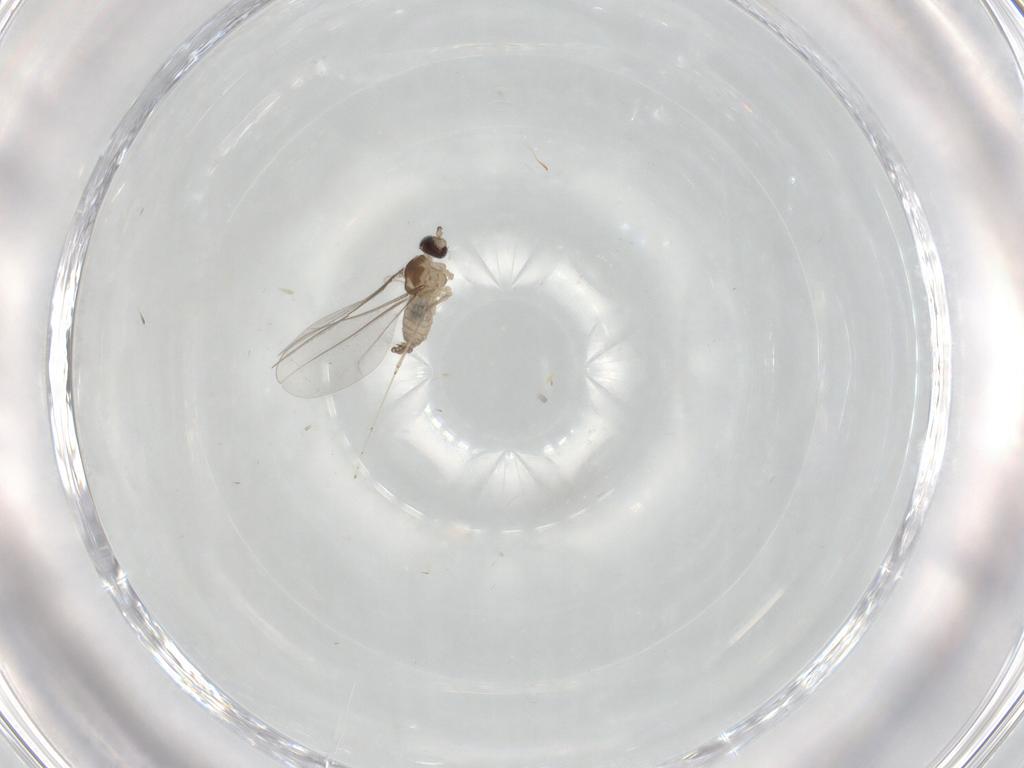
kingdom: Animalia
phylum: Arthropoda
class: Insecta
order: Diptera
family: Cecidomyiidae
